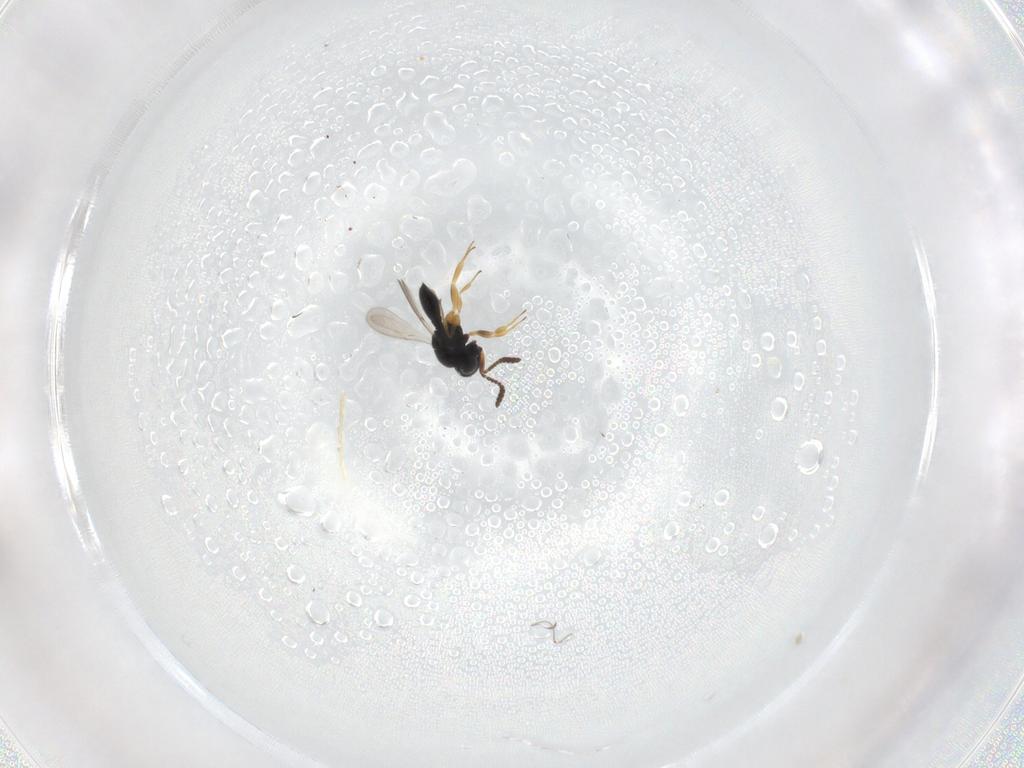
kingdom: Animalia
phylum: Arthropoda
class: Insecta
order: Hymenoptera
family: Scelionidae
